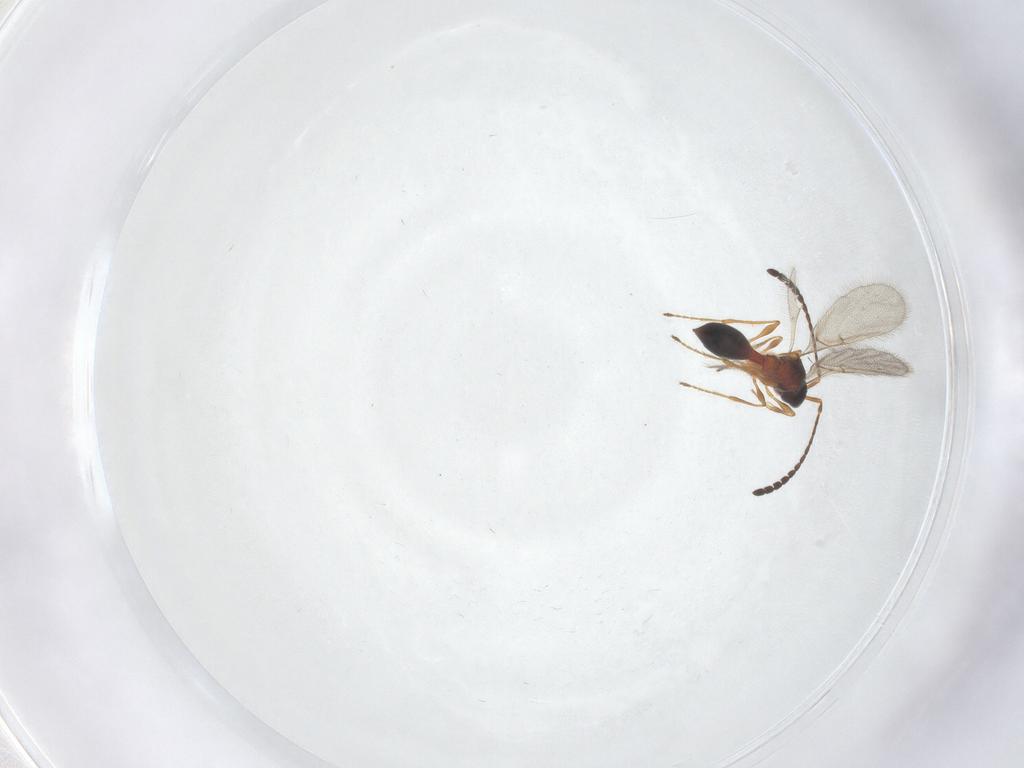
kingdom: Animalia
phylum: Arthropoda
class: Insecta
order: Hymenoptera
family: Diapriidae
